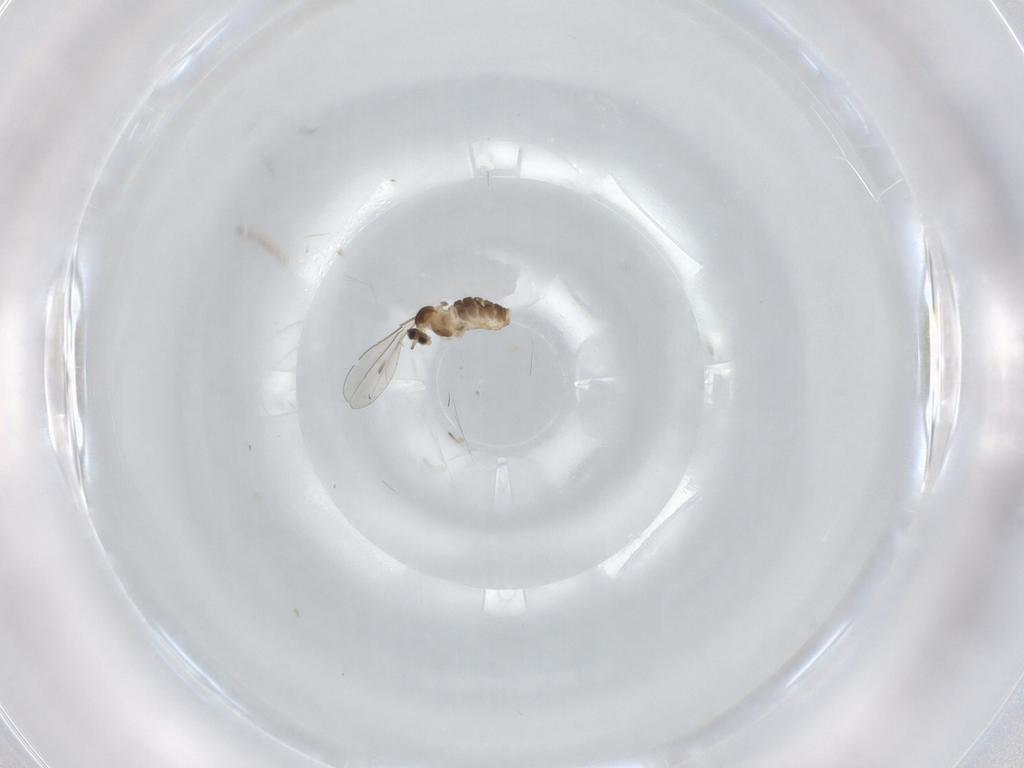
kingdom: Animalia
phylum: Arthropoda
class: Insecta
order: Diptera
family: Cecidomyiidae
